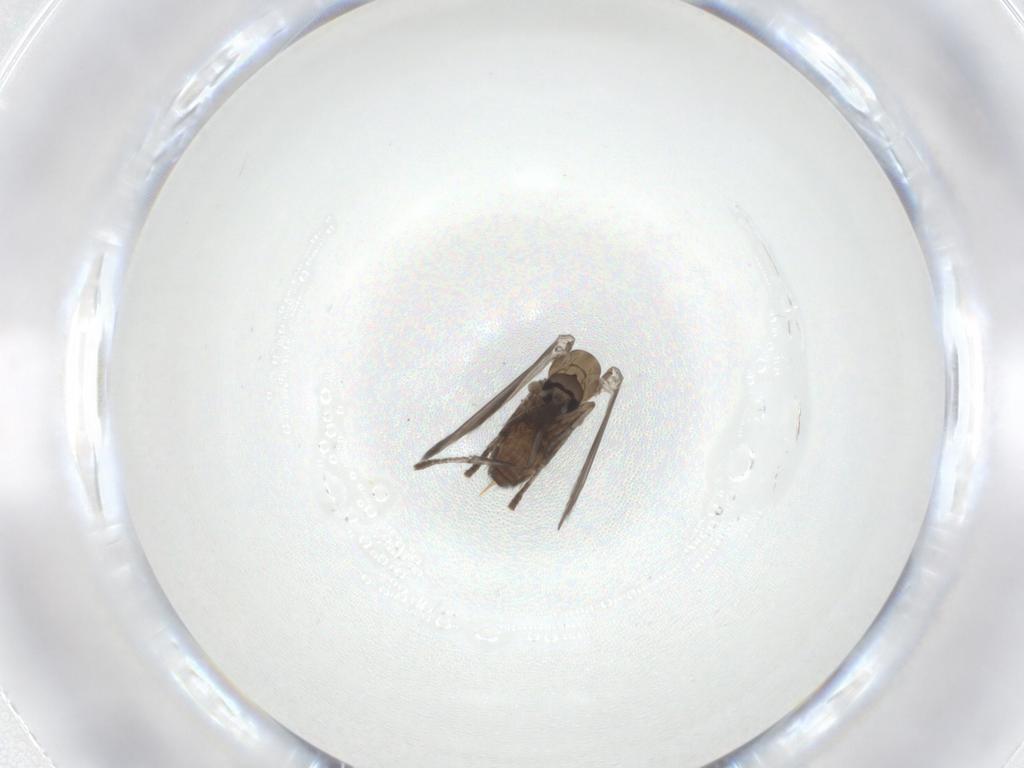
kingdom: Animalia
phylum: Arthropoda
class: Insecta
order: Diptera
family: Psychodidae
